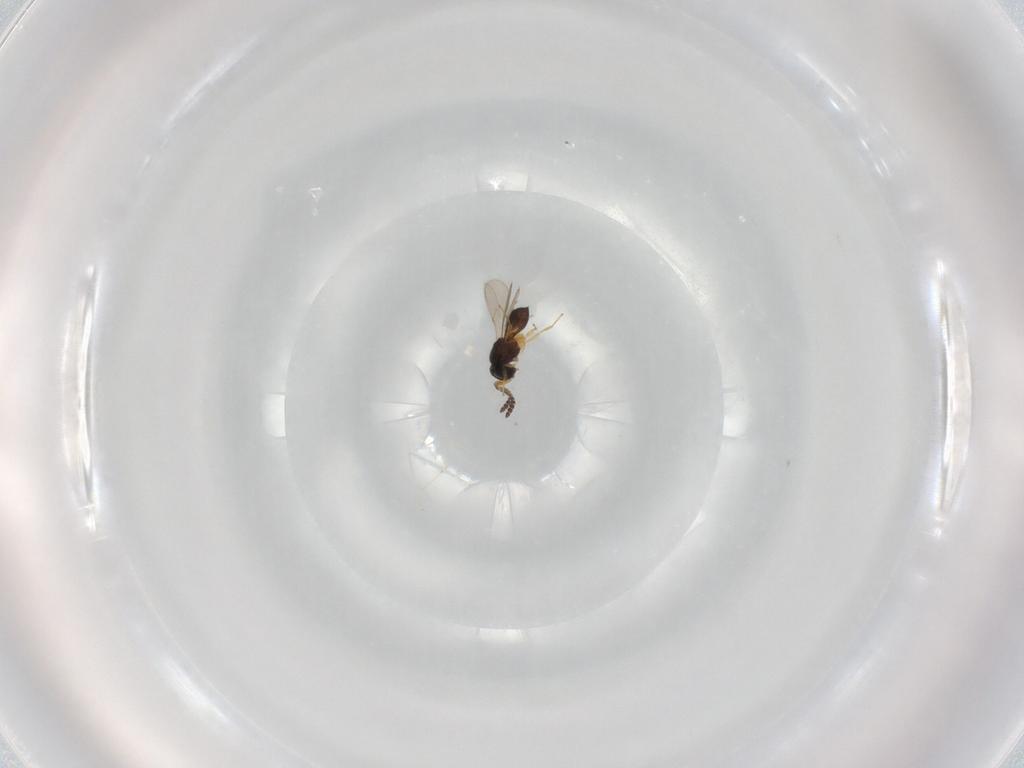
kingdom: Animalia
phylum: Arthropoda
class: Insecta
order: Hymenoptera
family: Scelionidae
